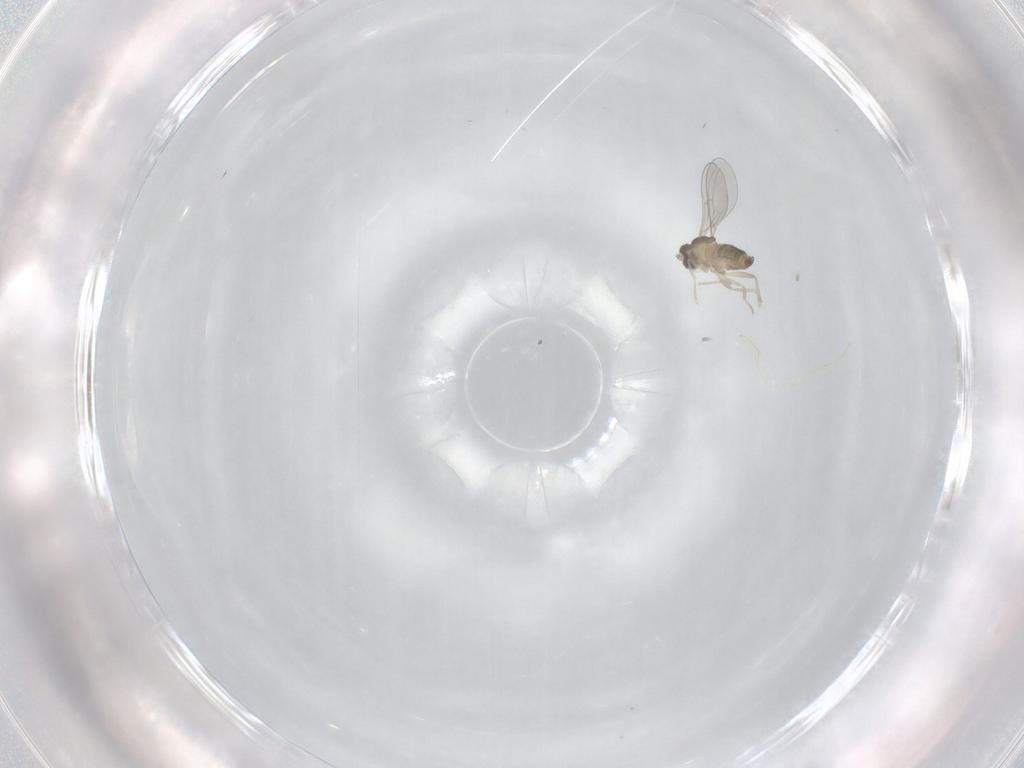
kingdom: Animalia
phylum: Arthropoda
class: Insecta
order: Diptera
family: Cecidomyiidae
